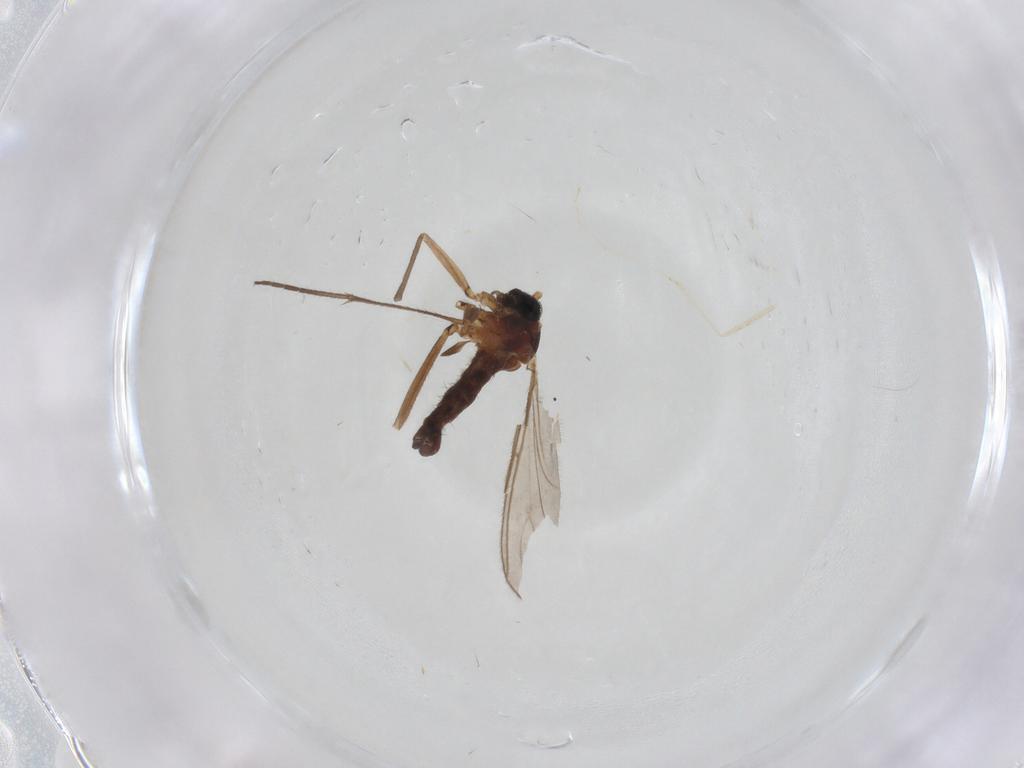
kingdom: Animalia
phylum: Arthropoda
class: Insecta
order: Diptera
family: Sciaridae
